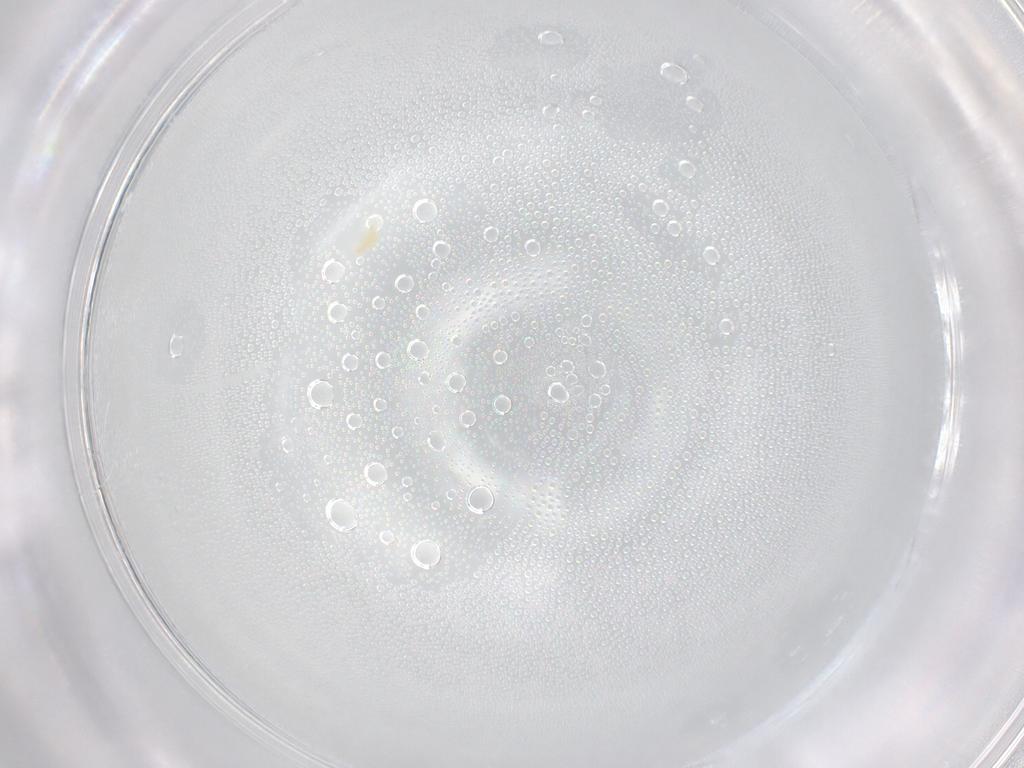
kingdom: Animalia
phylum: Arthropoda
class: Arachnida
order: Trombidiformes
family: Tetranychidae
